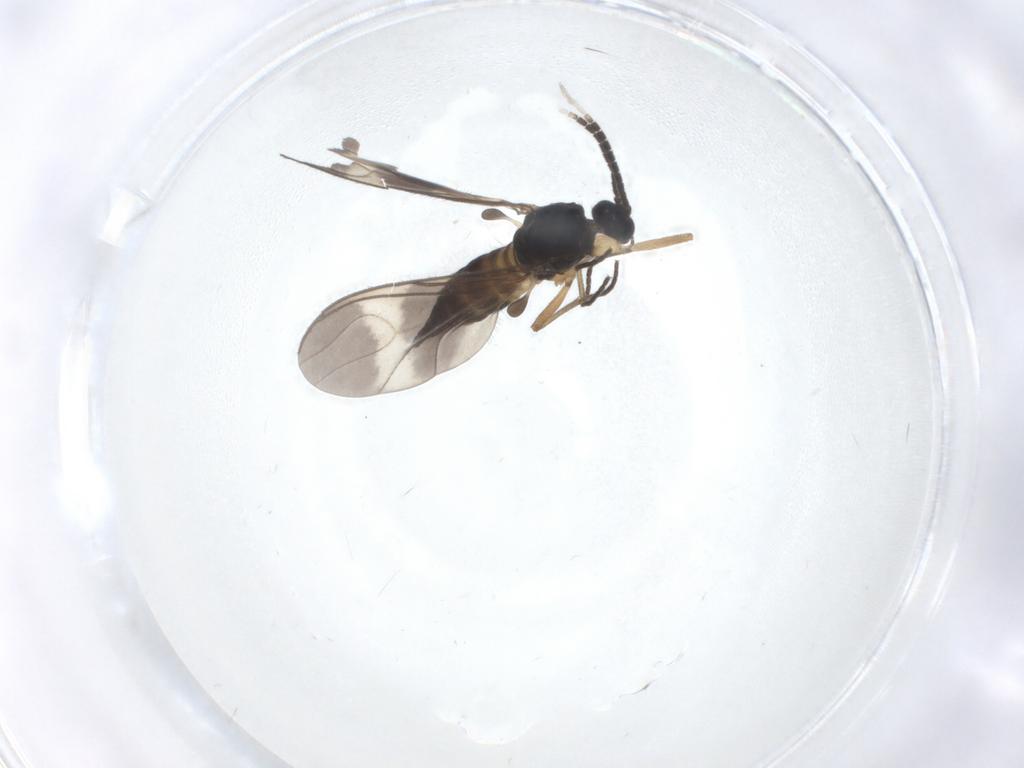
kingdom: Animalia
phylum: Arthropoda
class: Insecta
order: Diptera
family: Sciaridae
